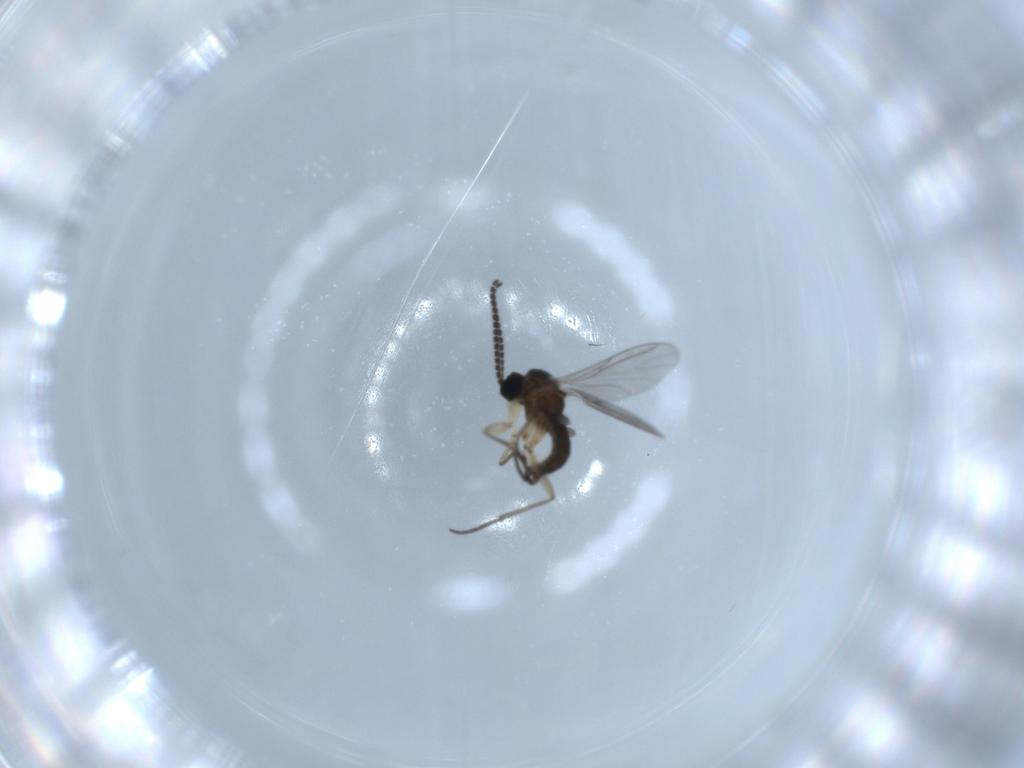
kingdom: Animalia
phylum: Arthropoda
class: Insecta
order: Diptera
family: Sciaridae
